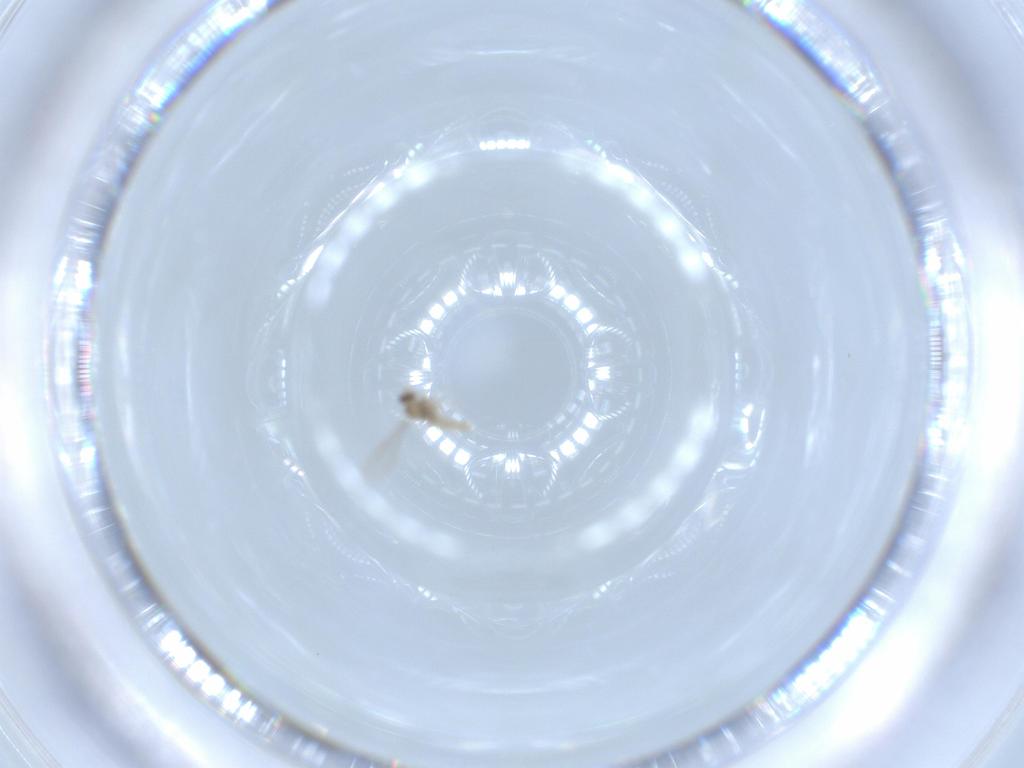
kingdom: Animalia
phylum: Arthropoda
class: Insecta
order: Diptera
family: Cecidomyiidae
